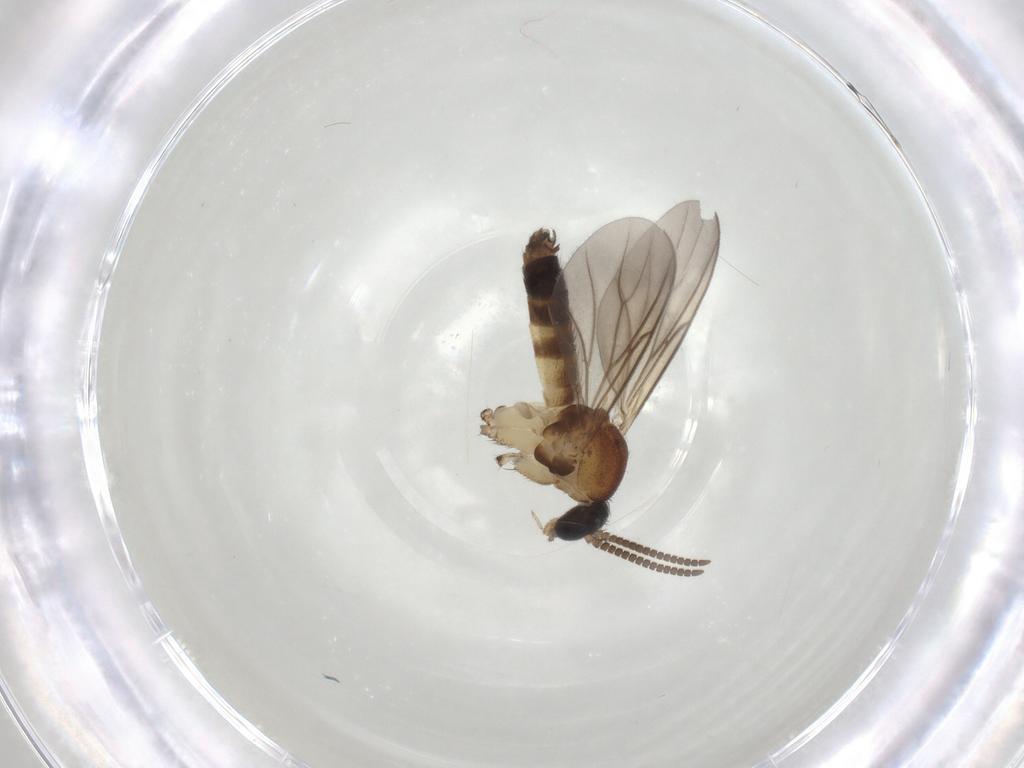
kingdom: Animalia
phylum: Arthropoda
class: Insecta
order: Diptera
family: Mycetophilidae
